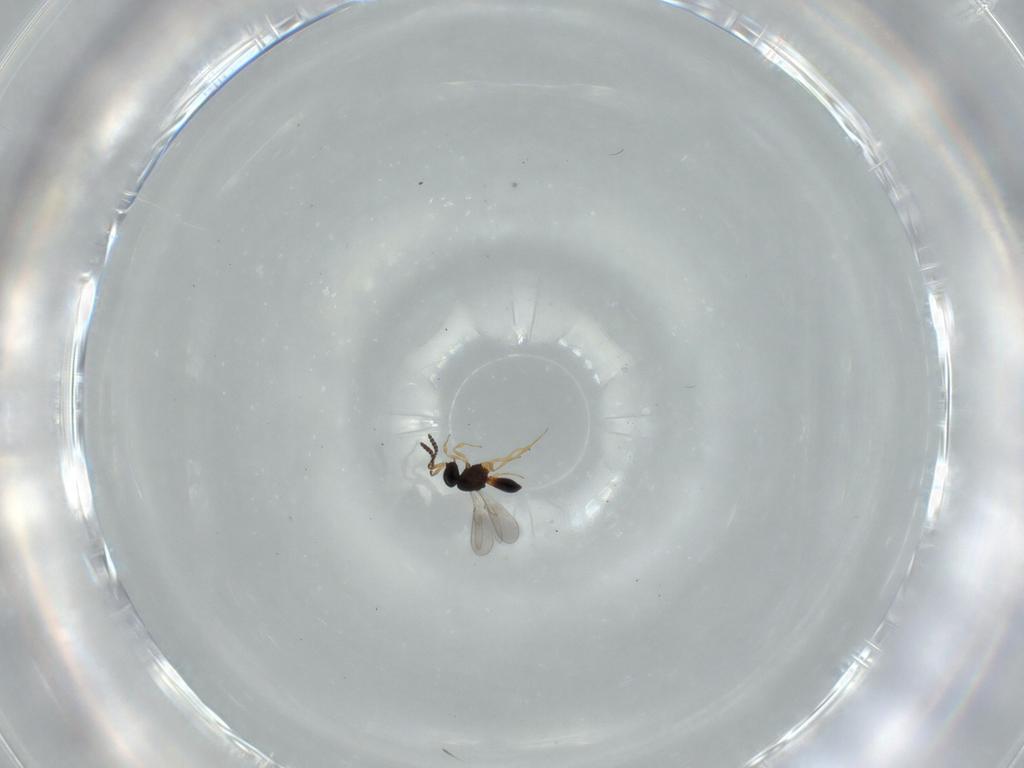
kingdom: Animalia
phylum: Arthropoda
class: Insecta
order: Hymenoptera
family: Scelionidae
